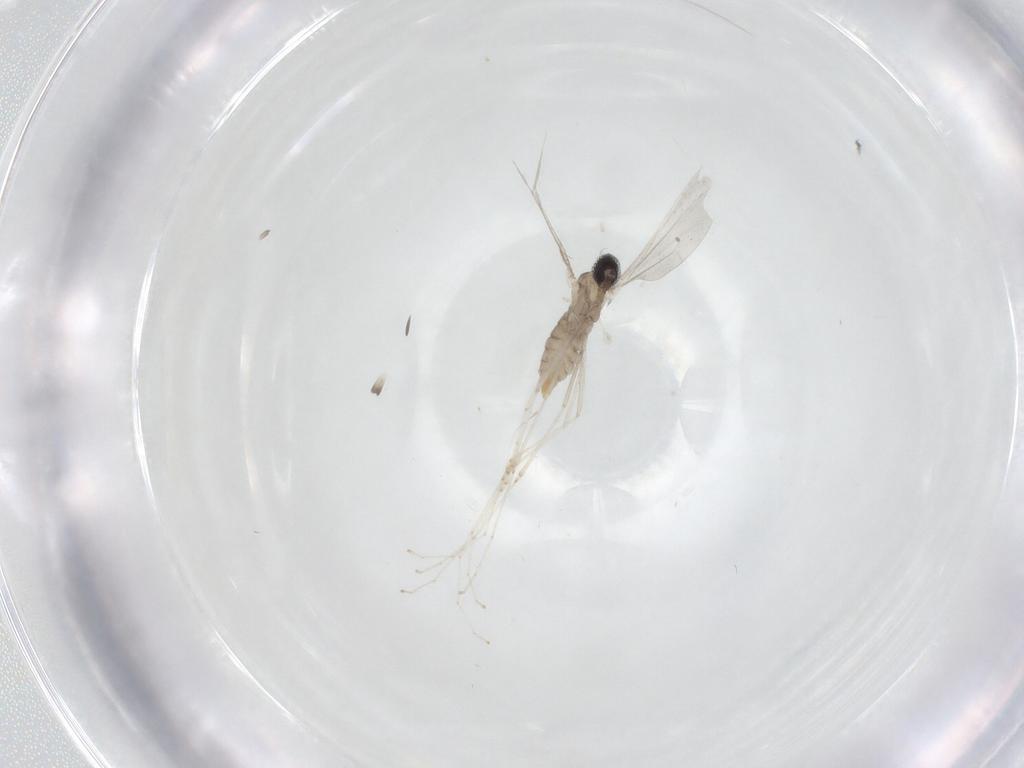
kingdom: Animalia
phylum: Arthropoda
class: Insecta
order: Diptera
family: Cecidomyiidae
